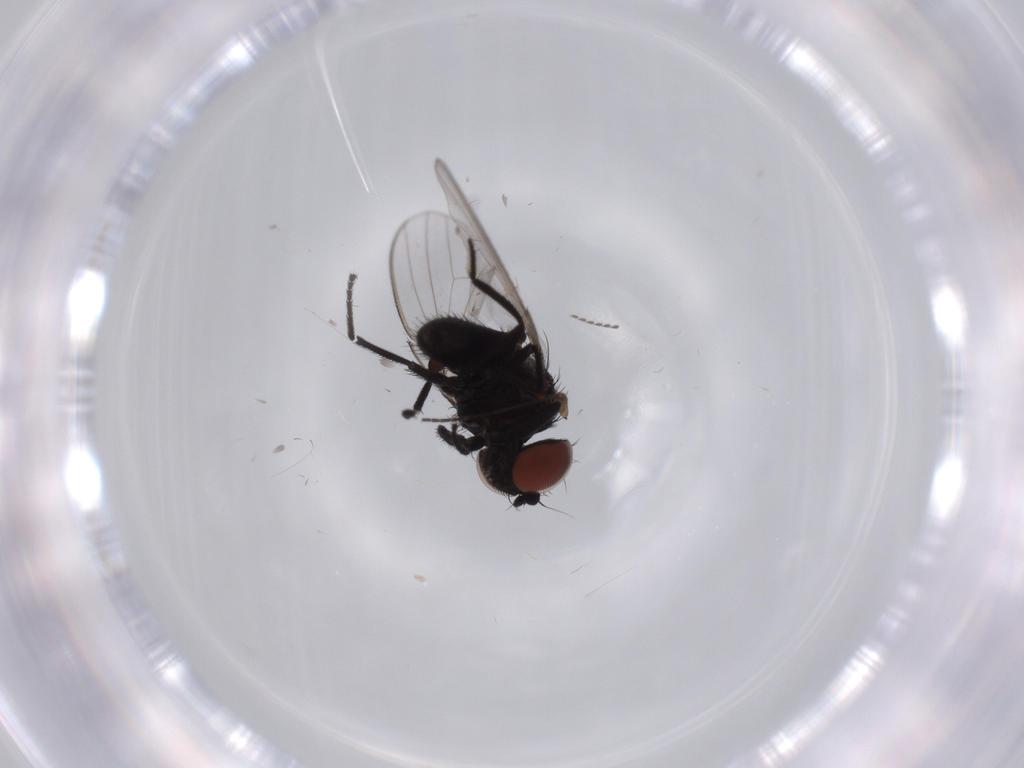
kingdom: Animalia
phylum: Arthropoda
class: Insecta
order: Diptera
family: Sciaridae
